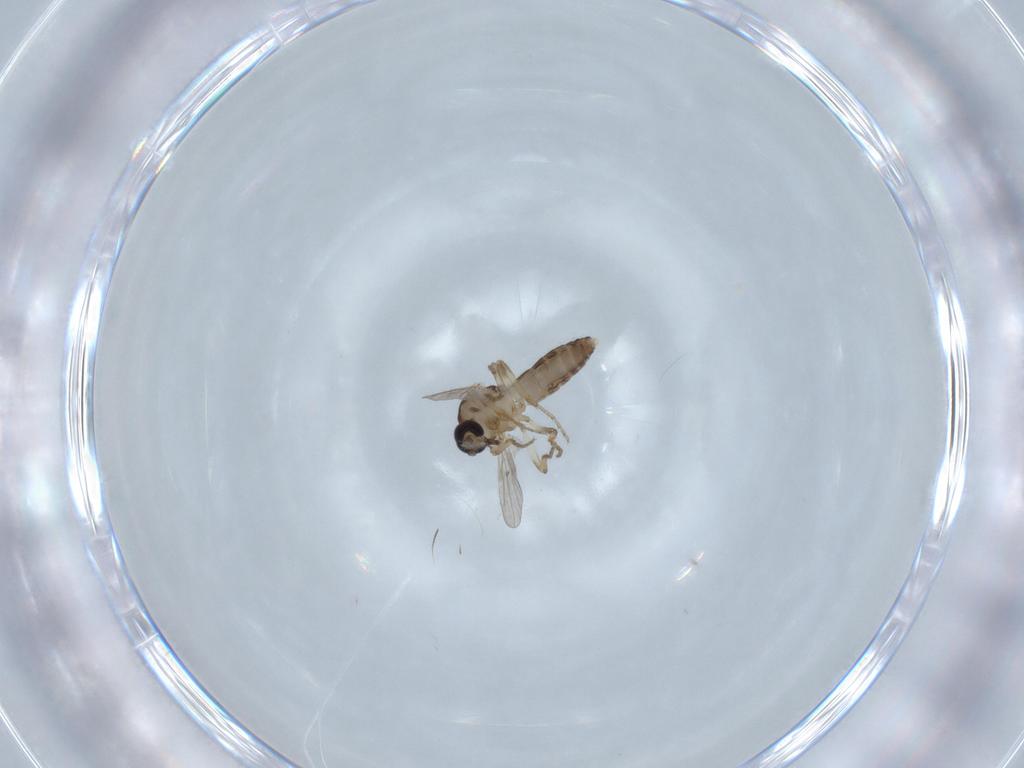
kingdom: Animalia
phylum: Arthropoda
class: Insecta
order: Diptera
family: Ceratopogonidae
